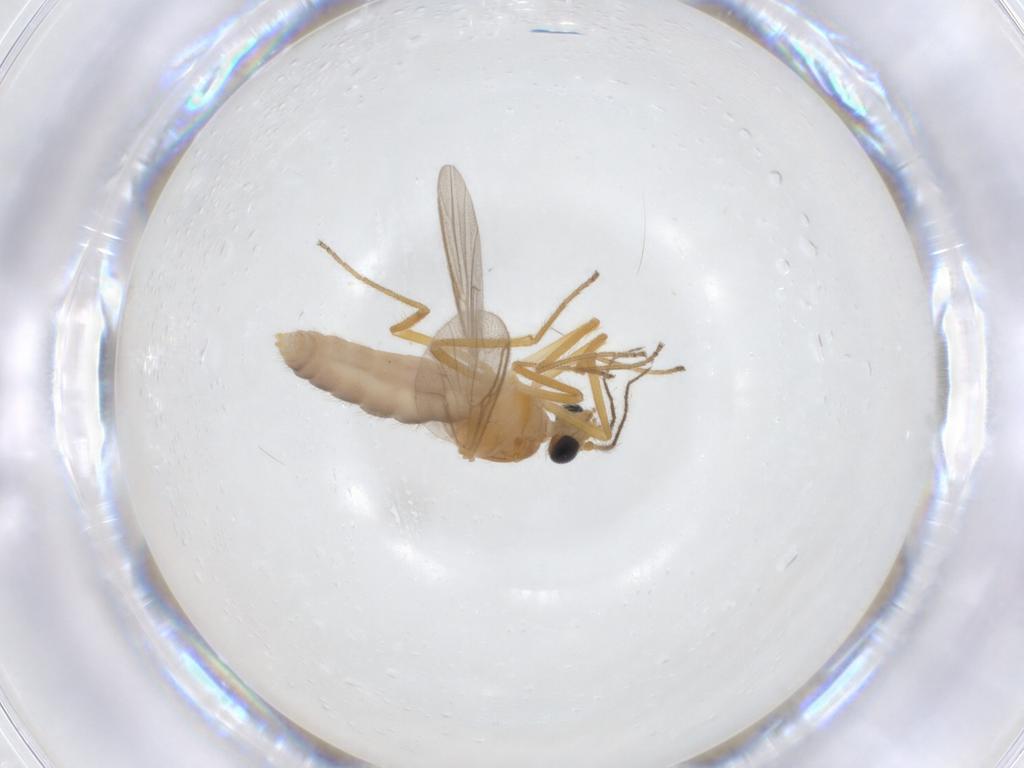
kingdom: Animalia
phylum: Arthropoda
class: Insecta
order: Diptera
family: Ceratopogonidae
